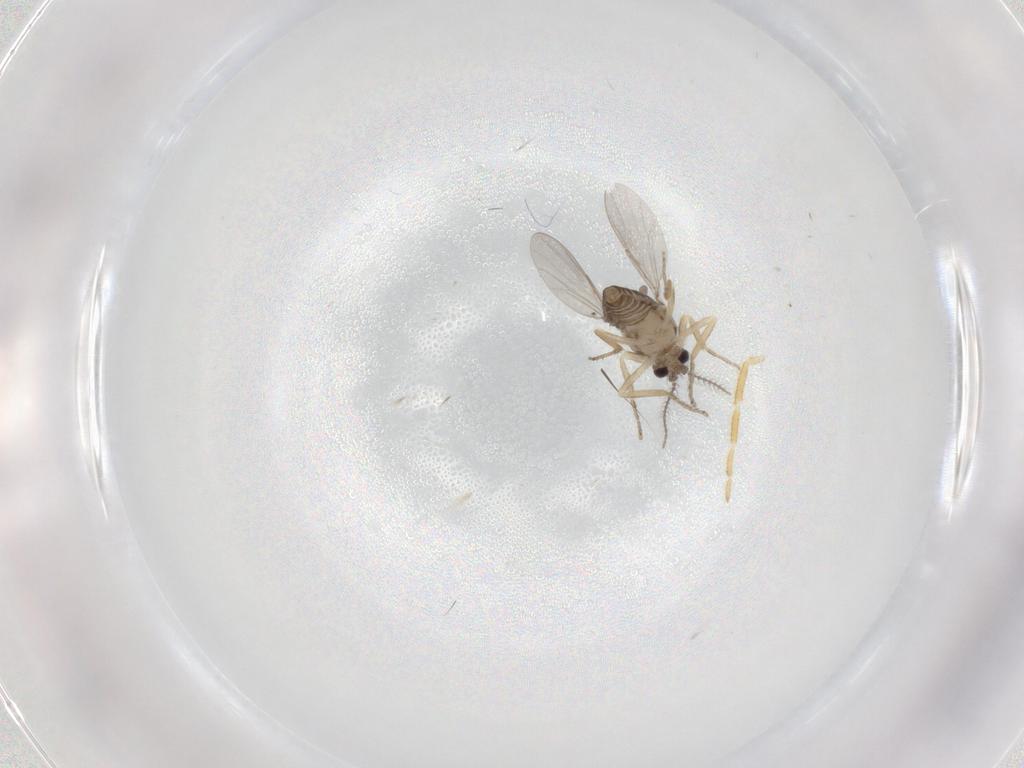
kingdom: Animalia
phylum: Arthropoda
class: Insecta
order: Diptera
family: Ceratopogonidae
